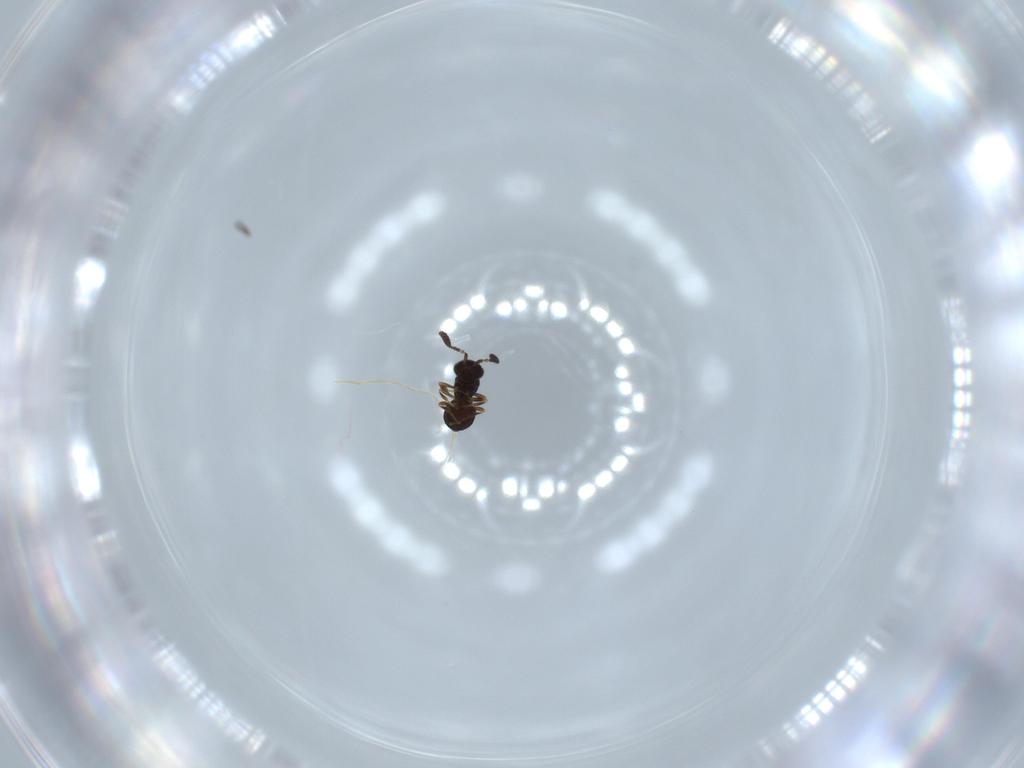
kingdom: Animalia
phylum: Arthropoda
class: Insecta
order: Hymenoptera
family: Scelionidae
